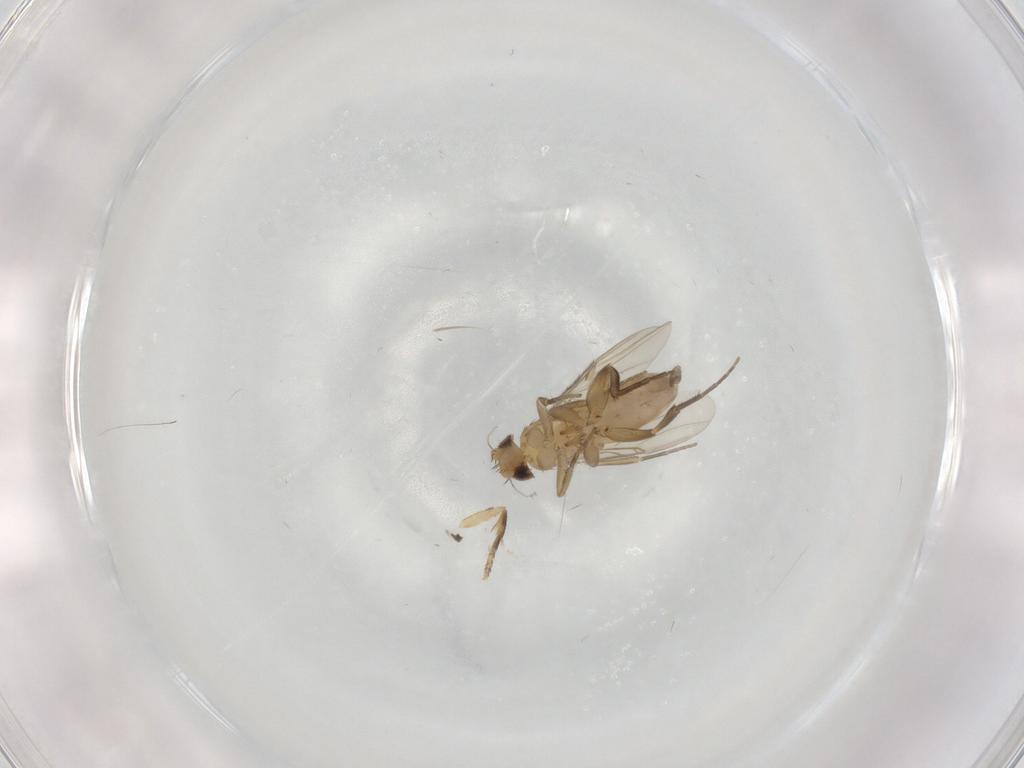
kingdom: Animalia
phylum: Arthropoda
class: Insecta
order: Diptera
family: Phoridae
